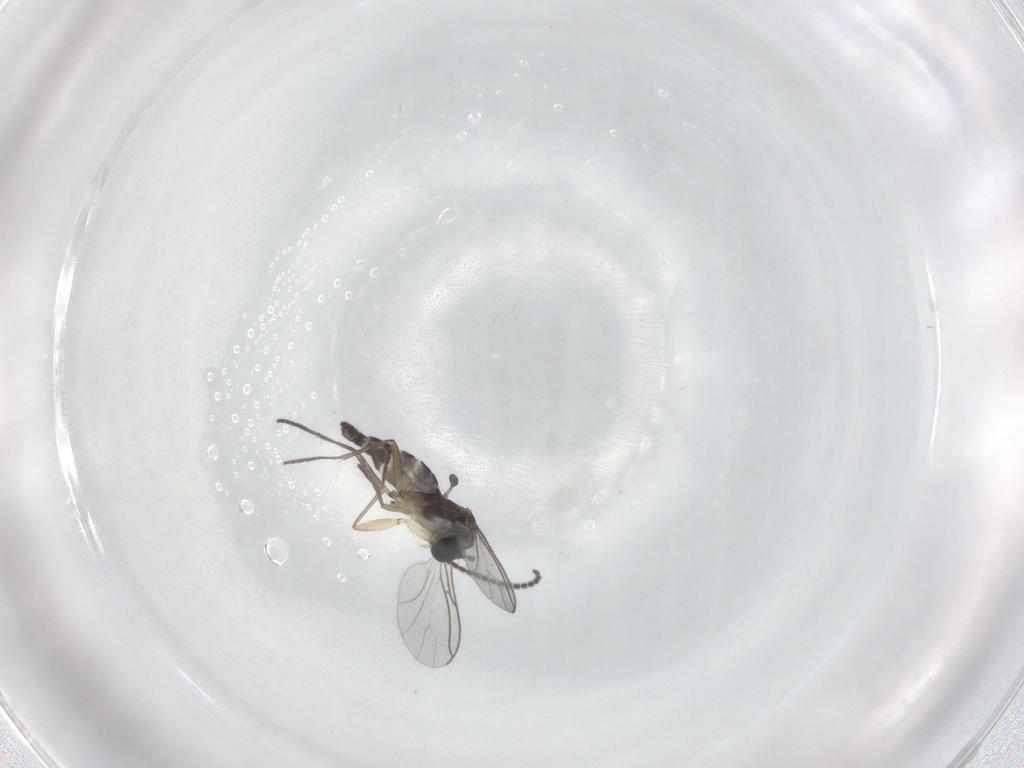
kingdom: Animalia
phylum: Arthropoda
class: Insecta
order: Diptera
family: Sciaridae
